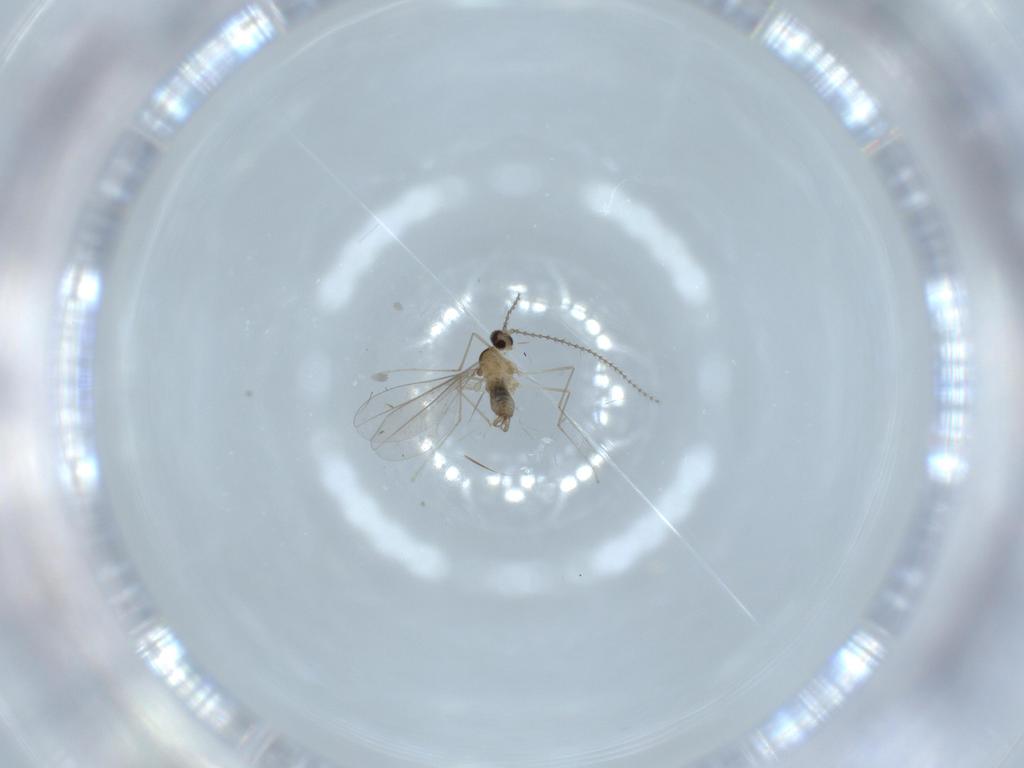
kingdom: Animalia
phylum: Arthropoda
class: Insecta
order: Diptera
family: Cecidomyiidae
